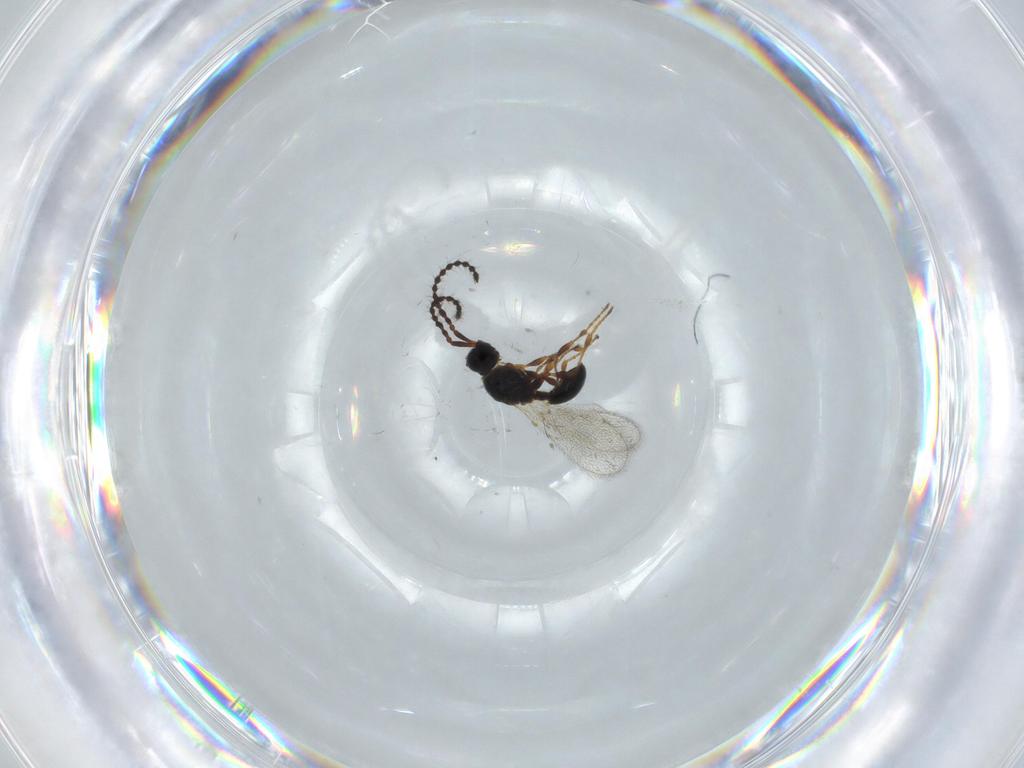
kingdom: Animalia
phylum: Arthropoda
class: Insecta
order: Hymenoptera
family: Diapriidae
